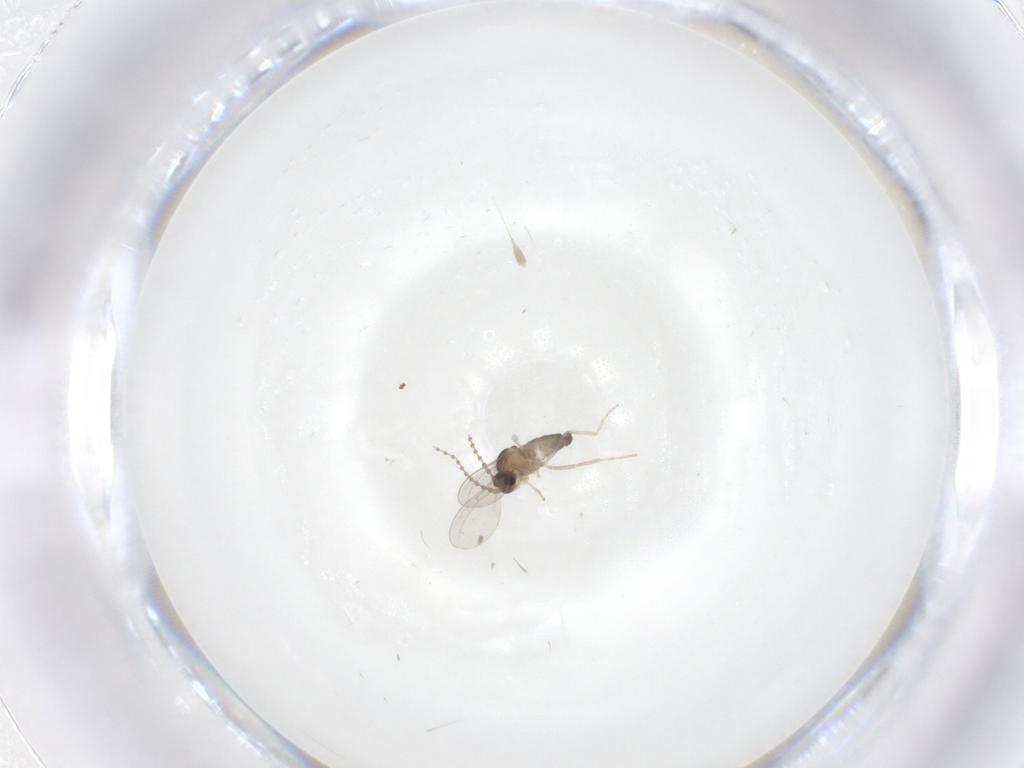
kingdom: Animalia
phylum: Arthropoda
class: Insecta
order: Diptera
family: Cecidomyiidae
